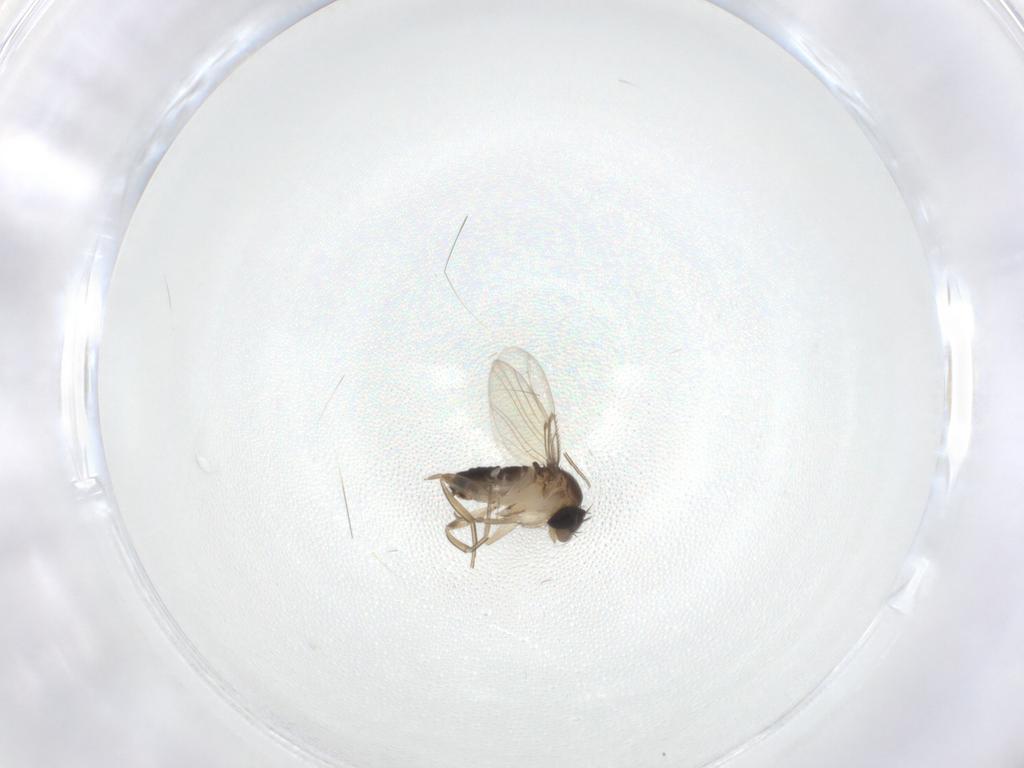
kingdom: Animalia
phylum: Arthropoda
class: Insecta
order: Diptera
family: Phoridae
